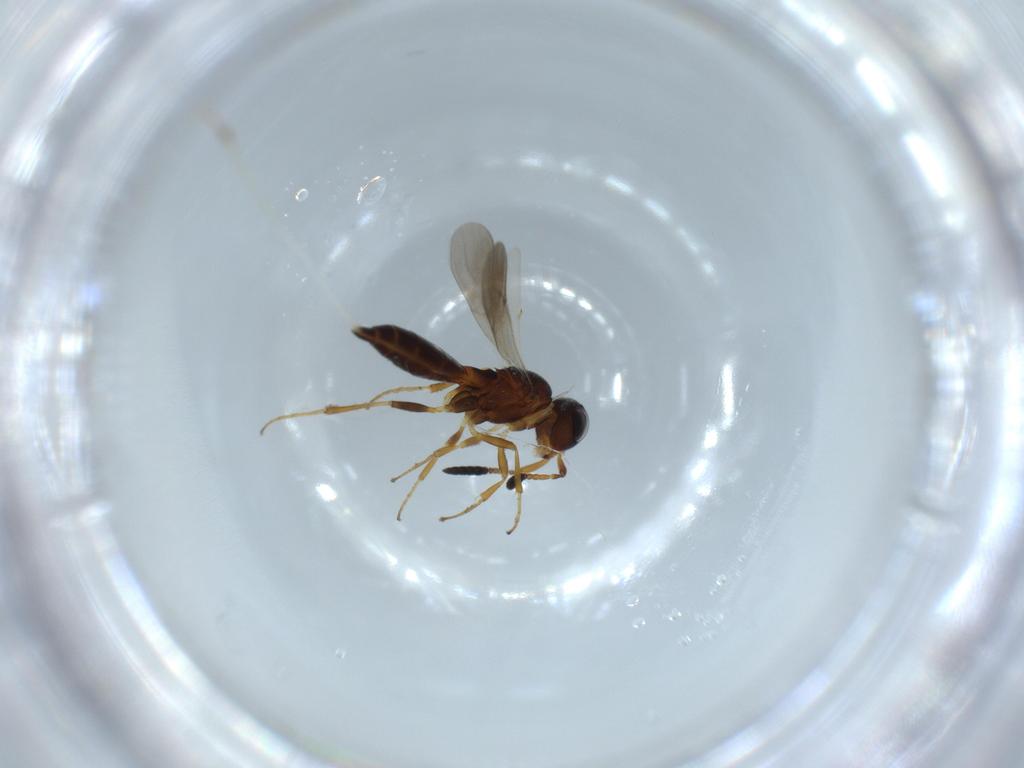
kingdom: Animalia
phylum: Arthropoda
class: Insecta
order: Hymenoptera
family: Scelionidae
